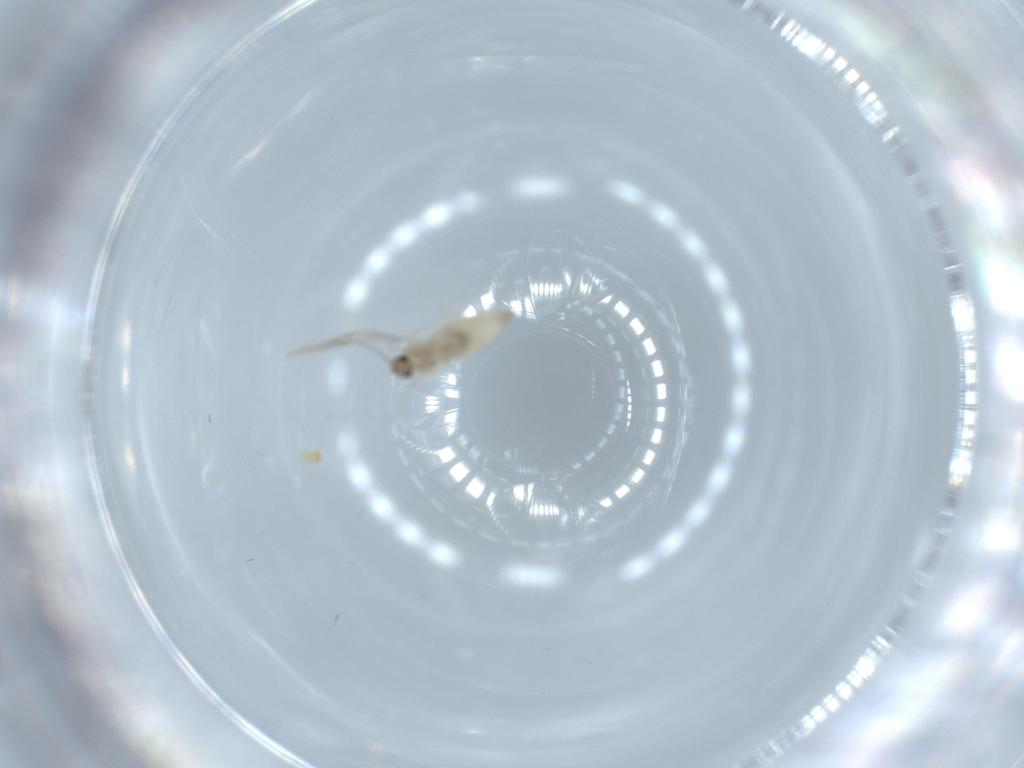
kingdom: Animalia
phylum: Arthropoda
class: Insecta
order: Diptera
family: Cecidomyiidae
